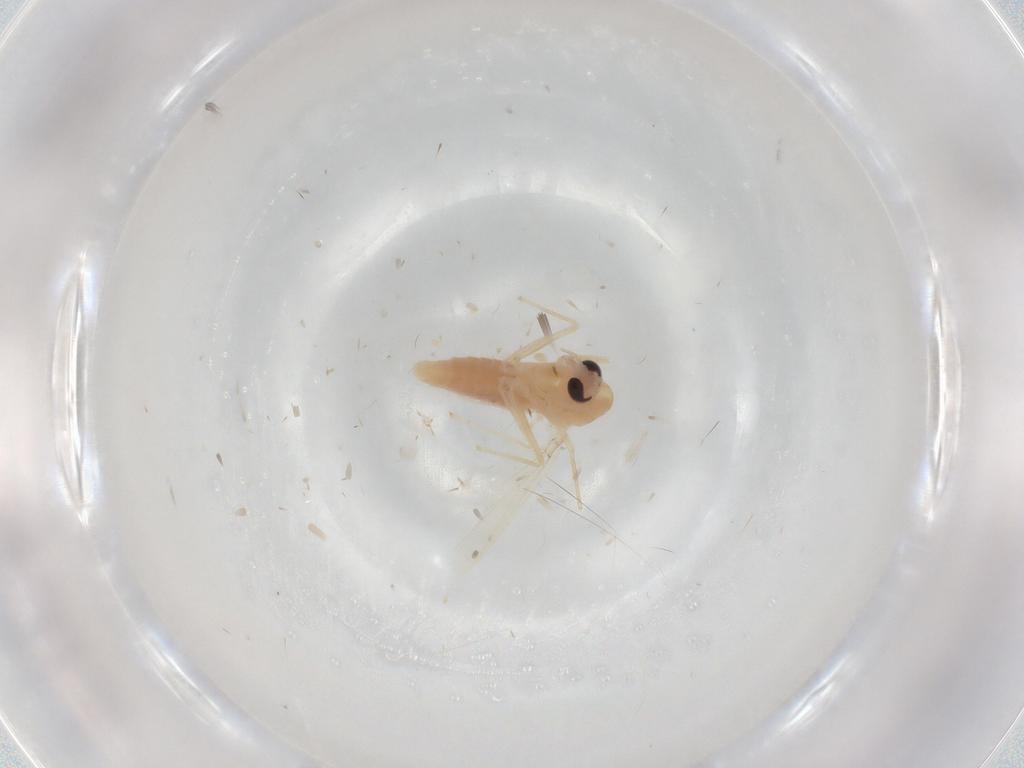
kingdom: Animalia
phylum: Arthropoda
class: Insecta
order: Diptera
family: Chironomidae
